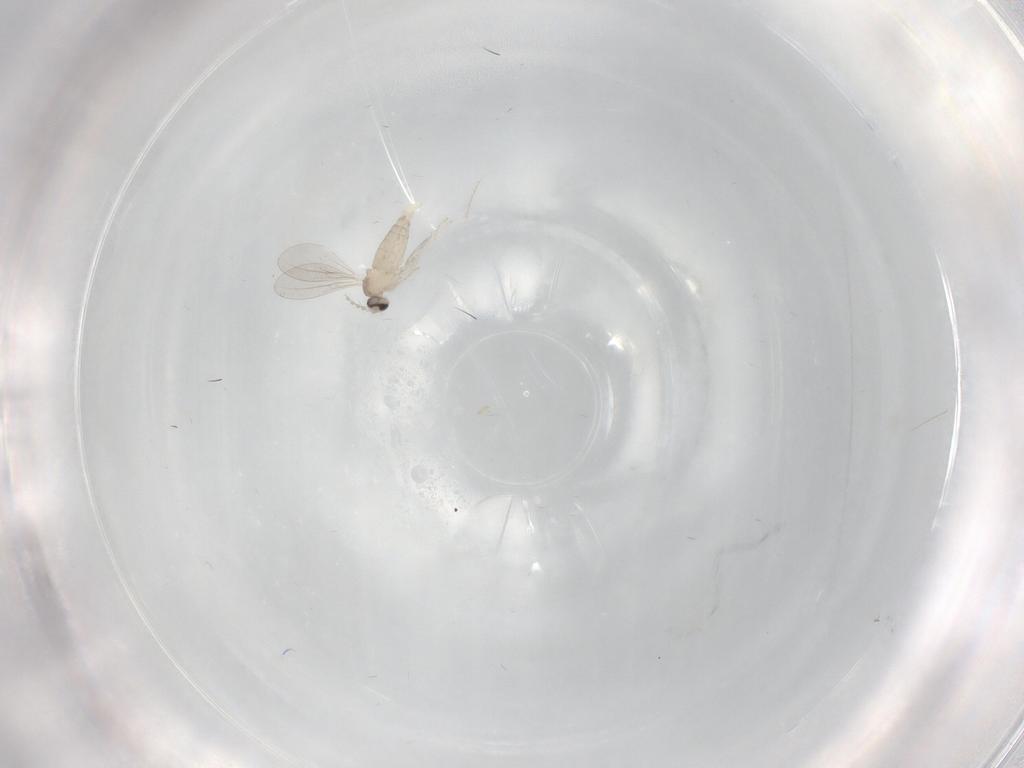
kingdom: Animalia
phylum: Arthropoda
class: Insecta
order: Diptera
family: Cecidomyiidae
